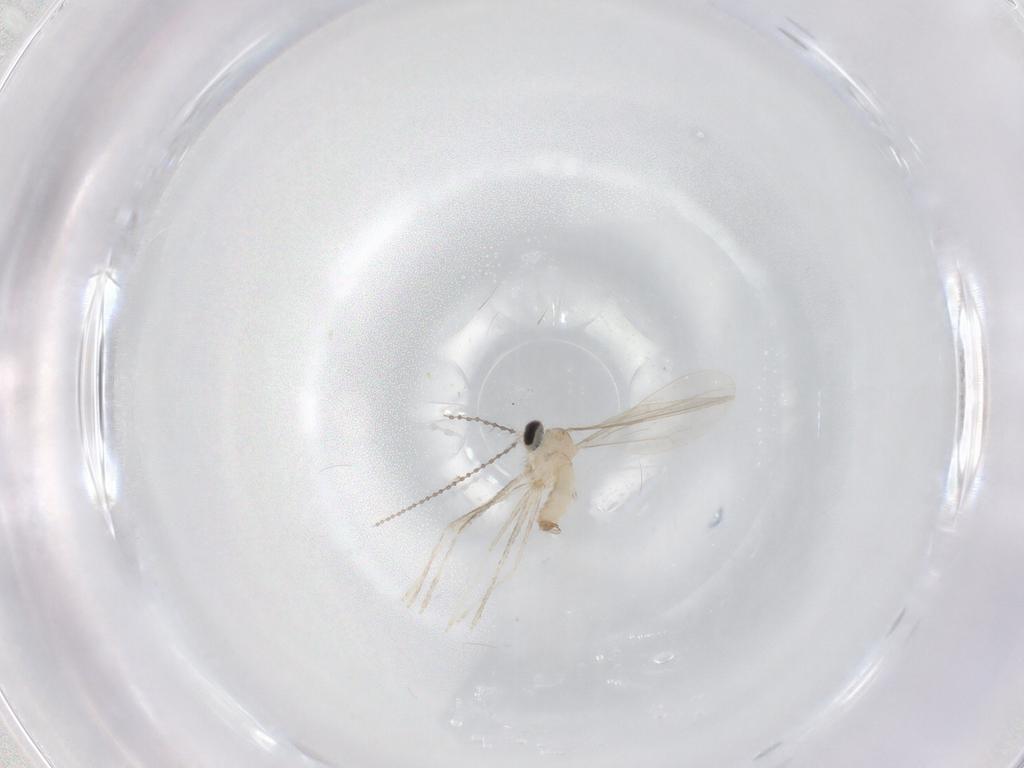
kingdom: Animalia
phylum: Arthropoda
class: Insecta
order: Diptera
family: Cecidomyiidae
